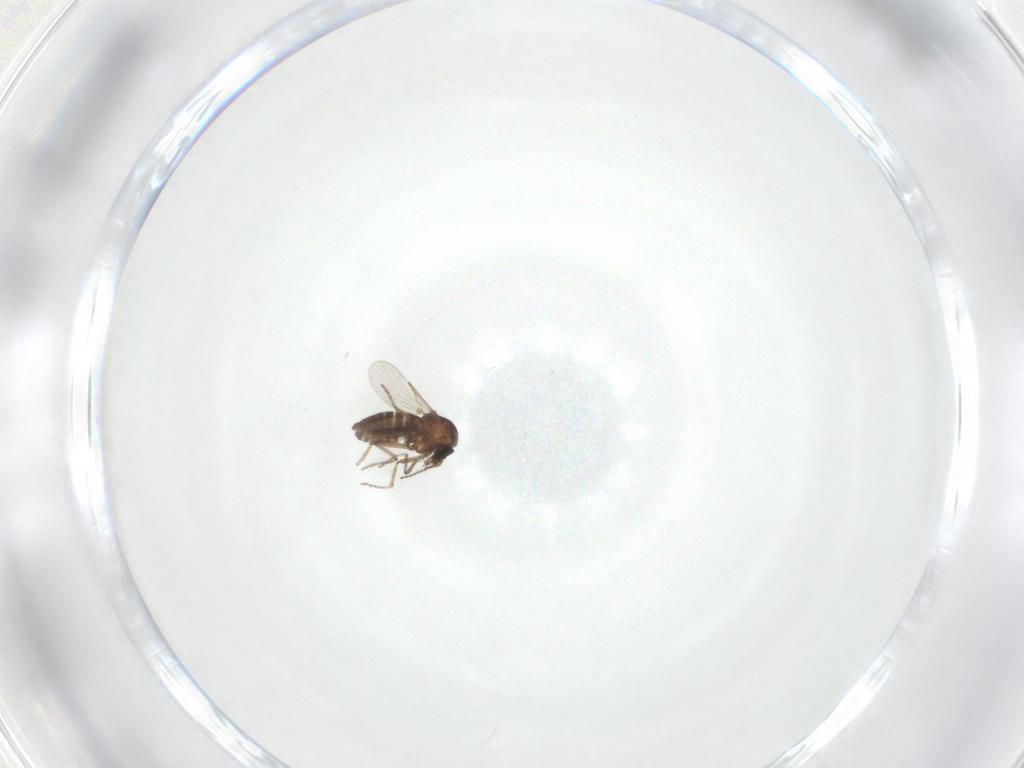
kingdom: Animalia
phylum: Arthropoda
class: Insecta
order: Diptera
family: Ceratopogonidae
